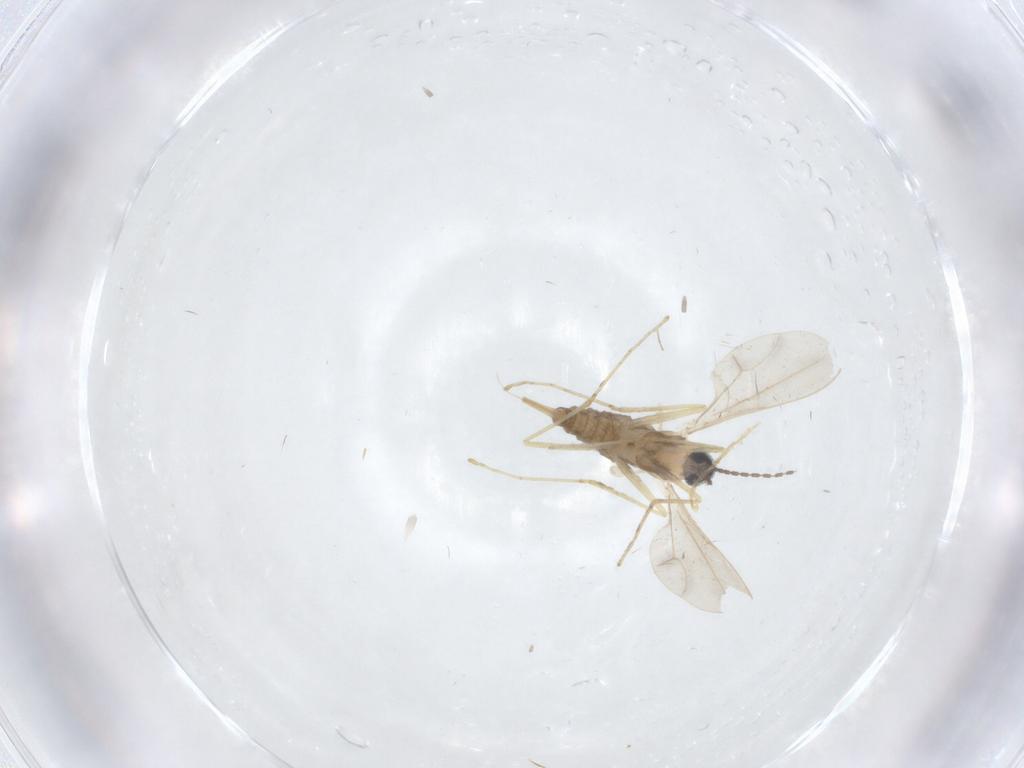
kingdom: Animalia
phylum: Arthropoda
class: Insecta
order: Diptera
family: Cecidomyiidae
